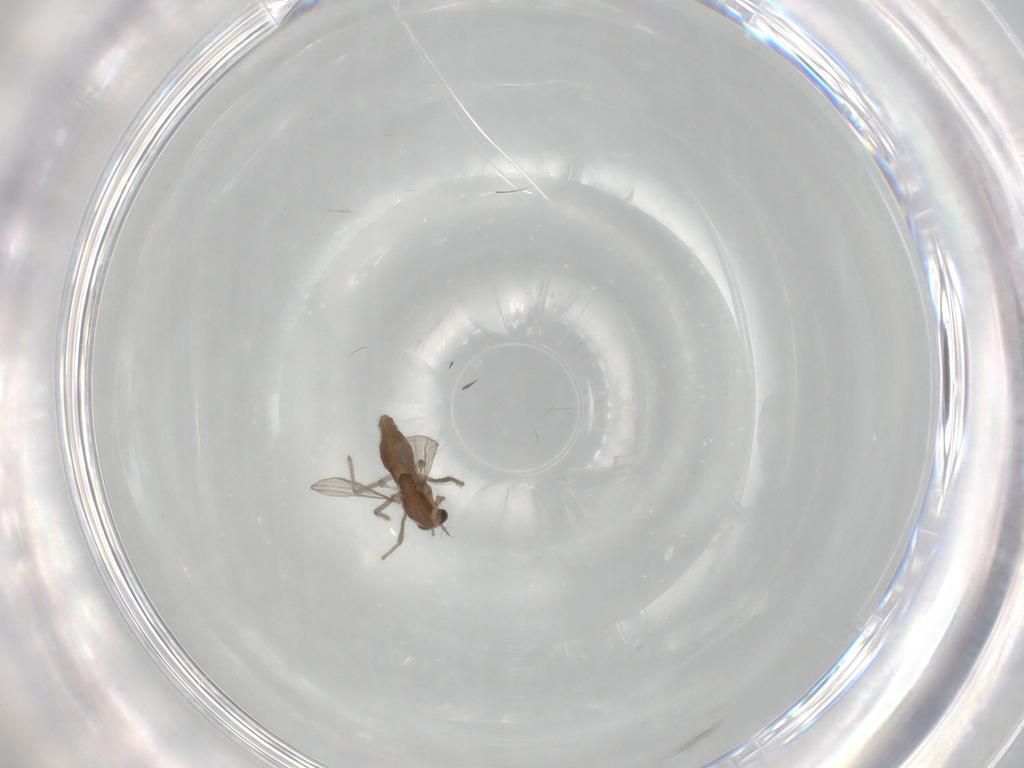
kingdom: Animalia
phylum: Arthropoda
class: Insecta
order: Diptera
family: Chironomidae
